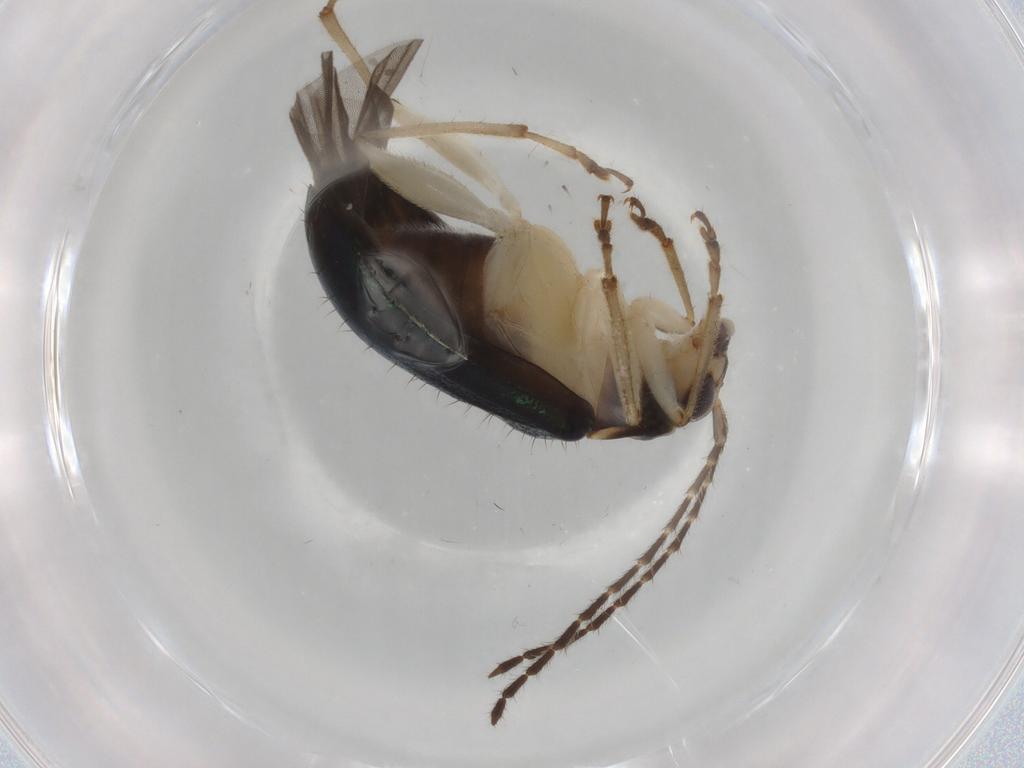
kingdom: Animalia
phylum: Arthropoda
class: Insecta
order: Coleoptera
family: Chrysomelidae
